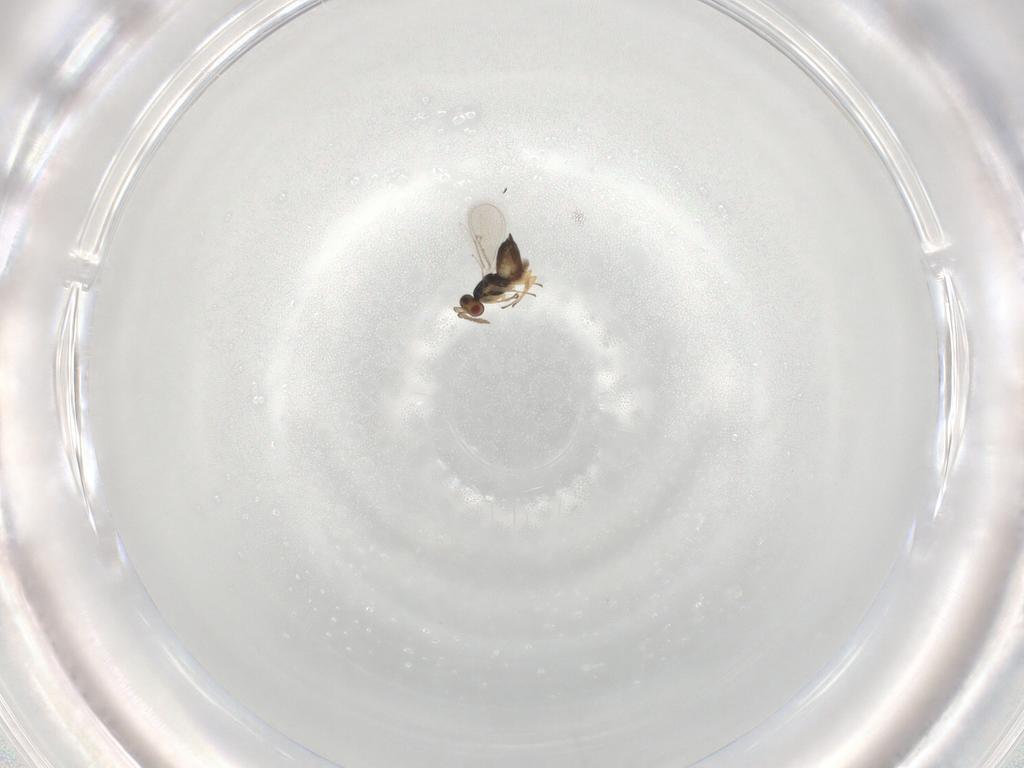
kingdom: Animalia
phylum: Arthropoda
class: Insecta
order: Hymenoptera
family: Eulophidae
